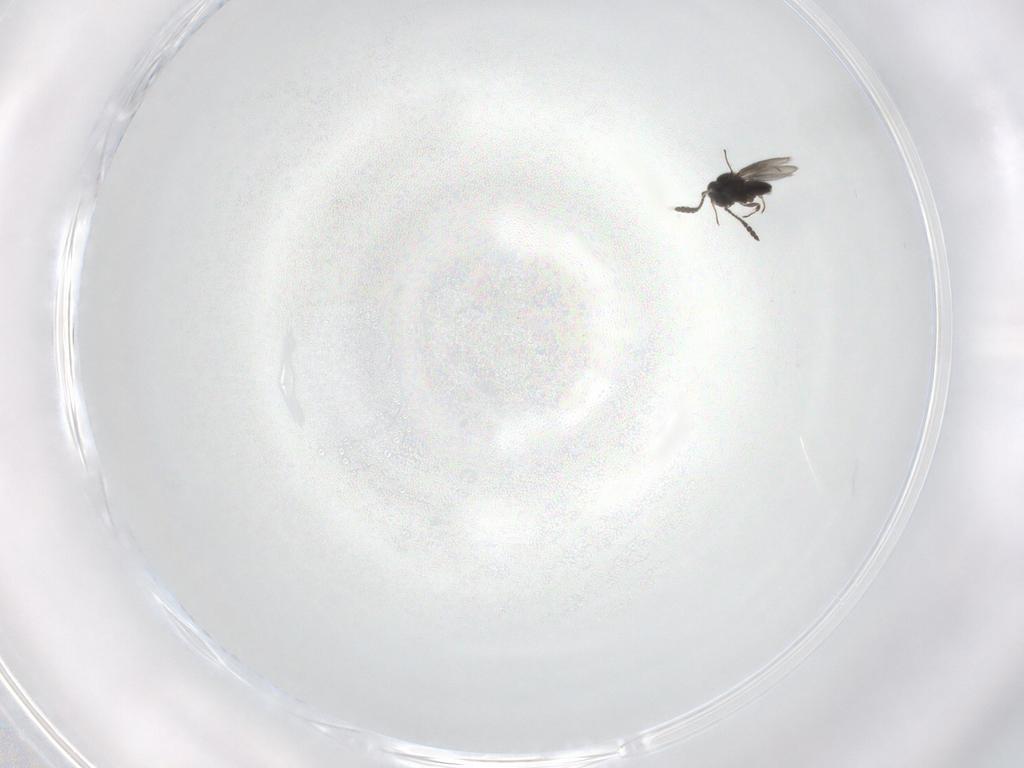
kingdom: Animalia
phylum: Arthropoda
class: Insecta
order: Hymenoptera
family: Scelionidae
